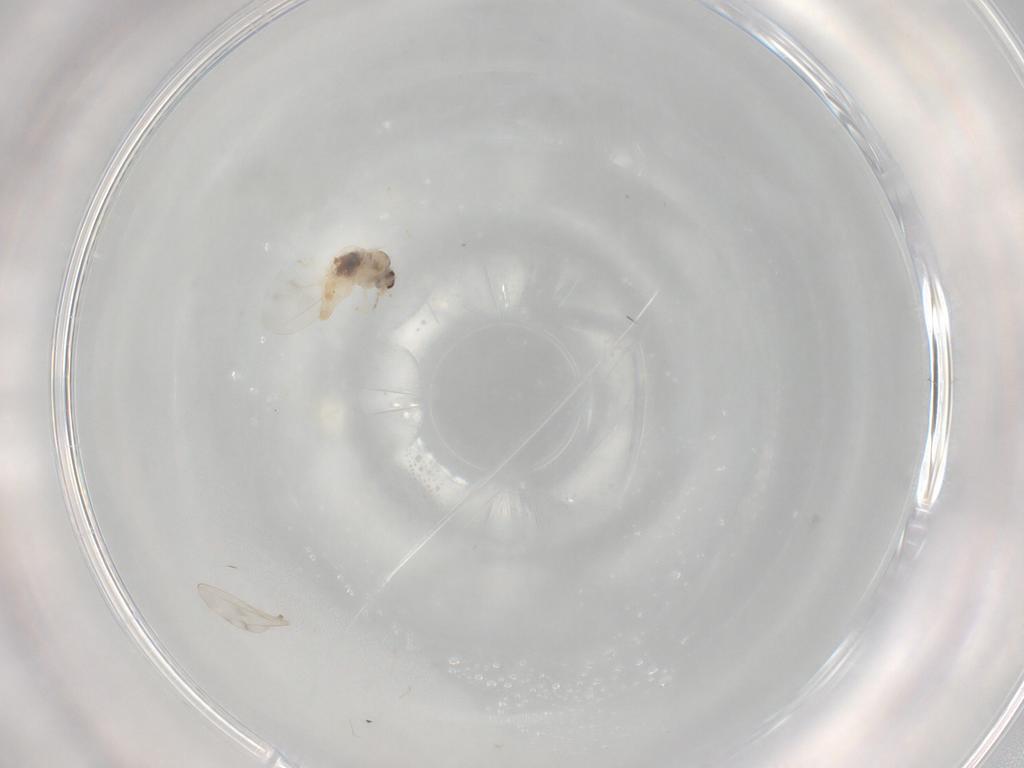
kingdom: Animalia
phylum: Arthropoda
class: Insecta
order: Diptera
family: Cecidomyiidae
